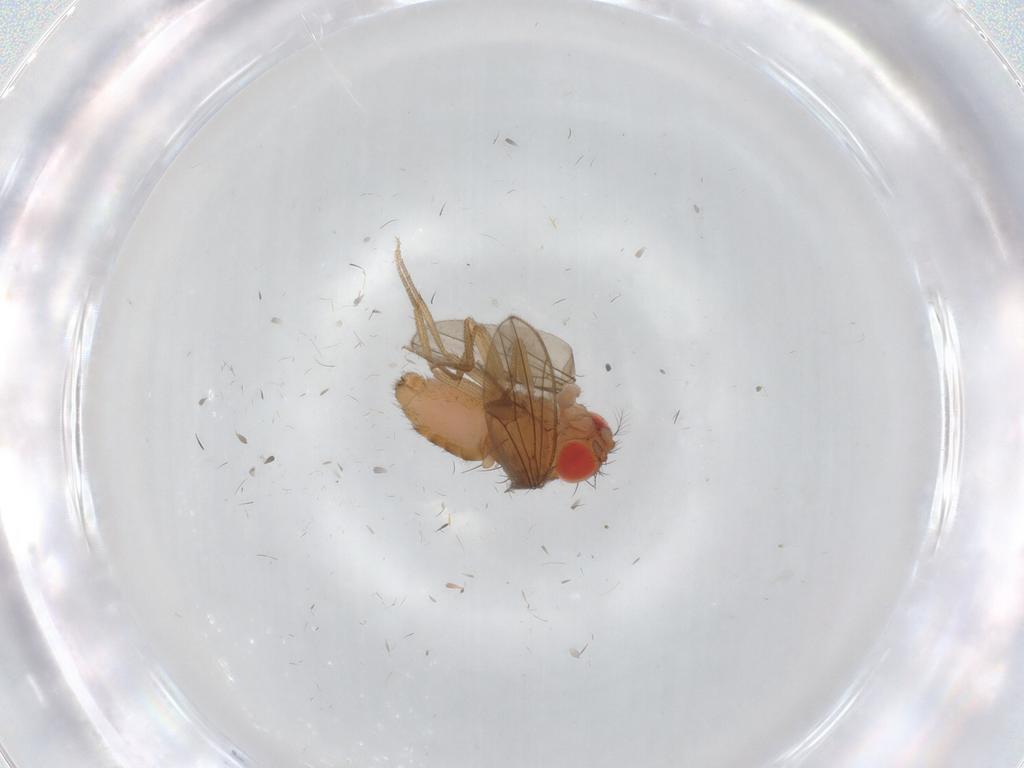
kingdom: Animalia
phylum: Arthropoda
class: Insecta
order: Diptera
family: Drosophilidae
